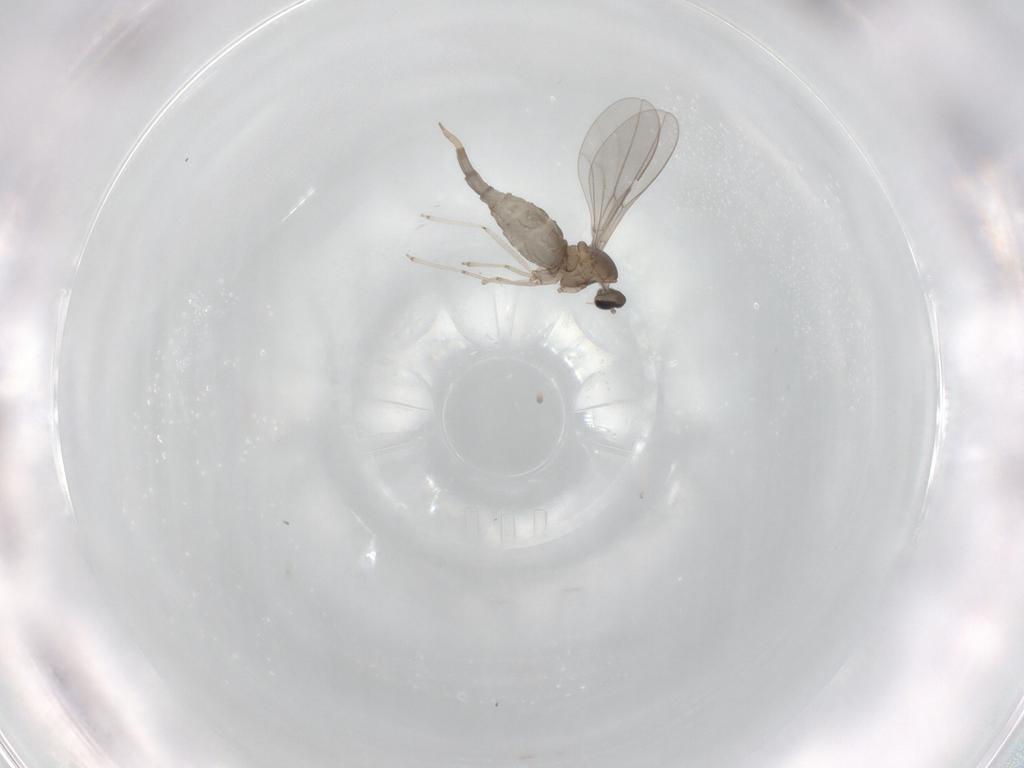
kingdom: Animalia
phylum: Arthropoda
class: Insecta
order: Diptera
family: Cecidomyiidae
